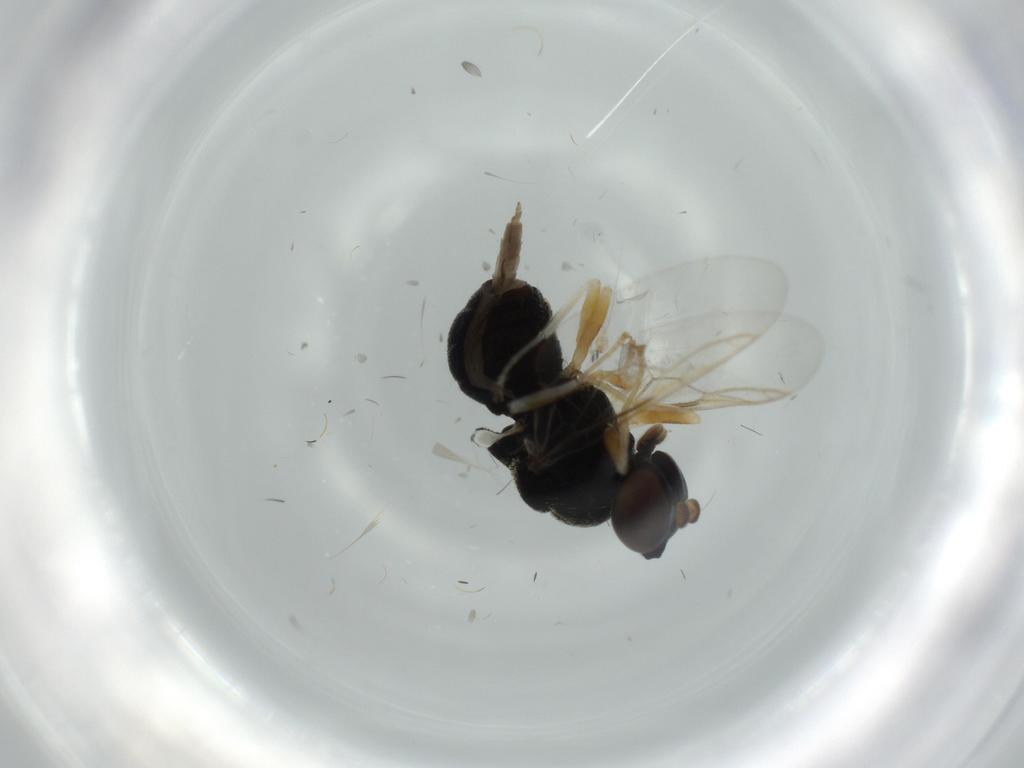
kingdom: Animalia
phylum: Arthropoda
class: Insecta
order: Diptera
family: Stratiomyidae
